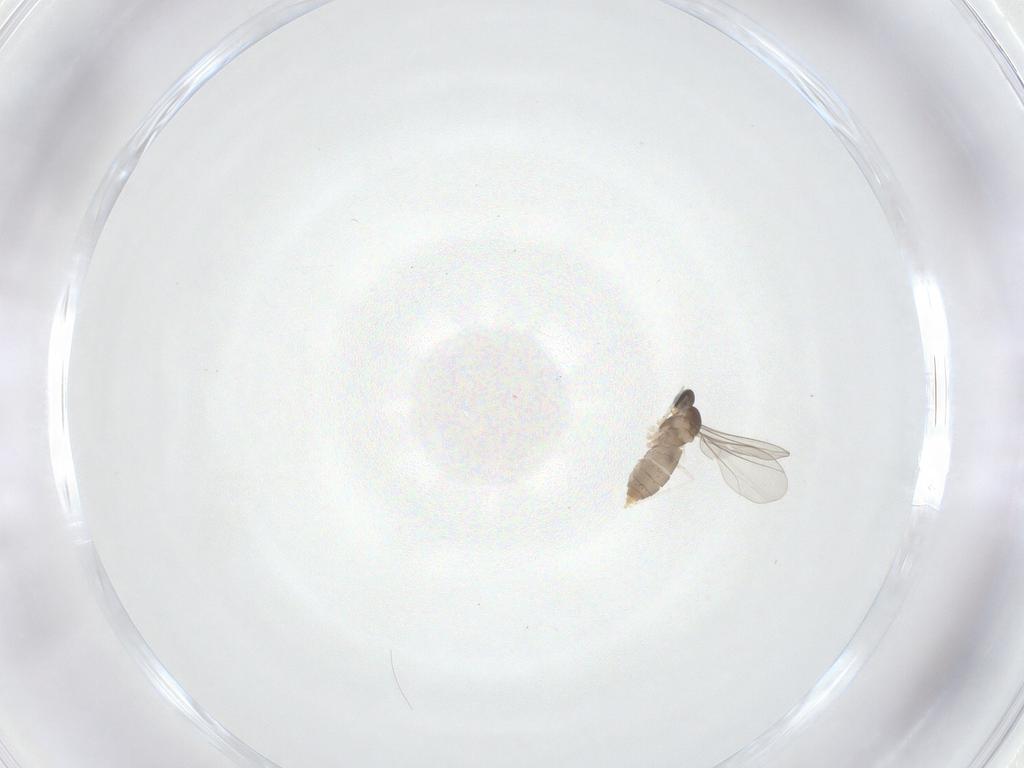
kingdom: Animalia
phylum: Arthropoda
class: Insecta
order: Diptera
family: Cecidomyiidae
